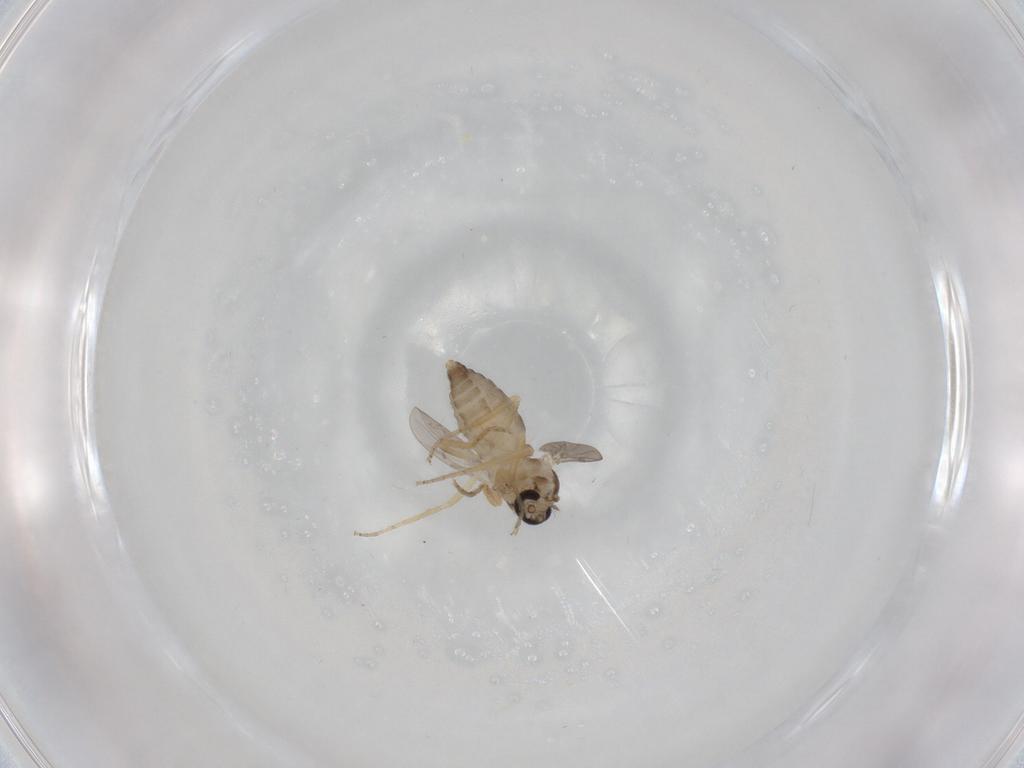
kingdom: Animalia
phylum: Arthropoda
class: Insecta
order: Diptera
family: Ceratopogonidae
